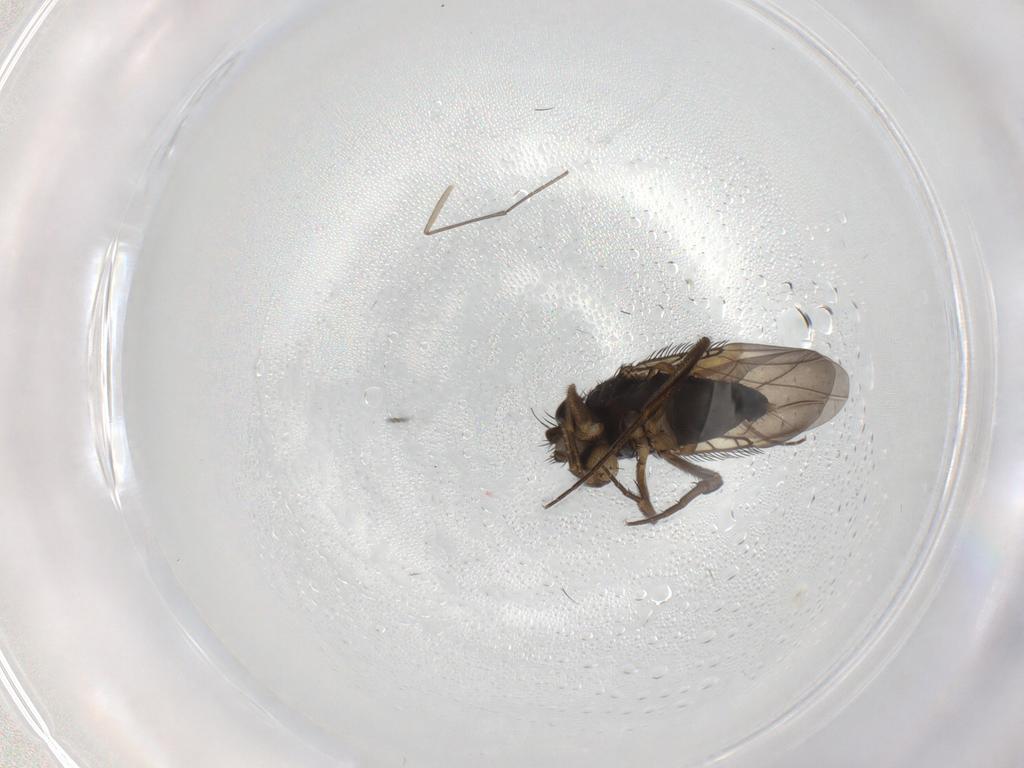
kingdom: Animalia
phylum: Arthropoda
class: Insecta
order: Diptera
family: Phoridae
